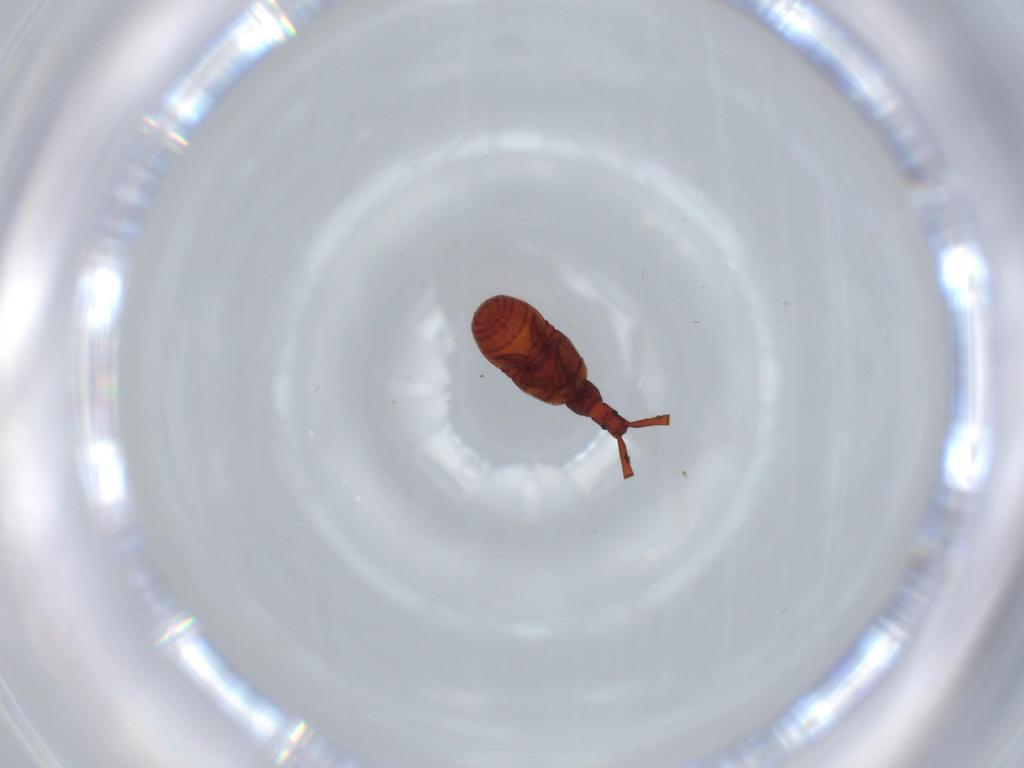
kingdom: Animalia
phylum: Arthropoda
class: Insecta
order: Coleoptera
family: Staphylinidae
